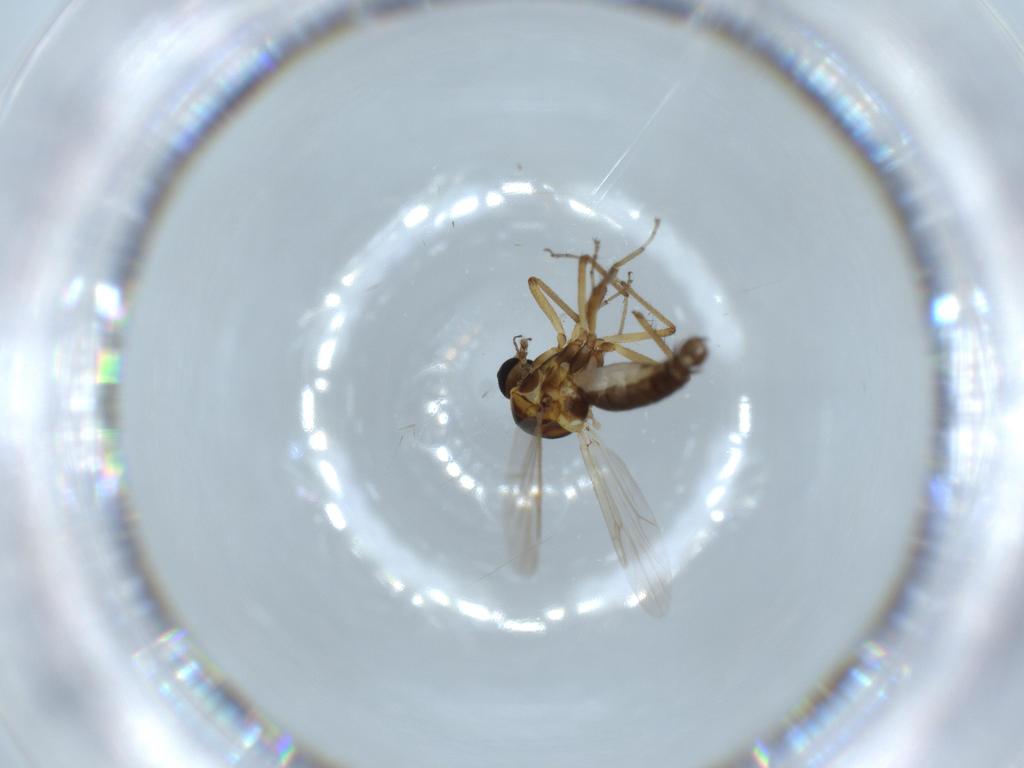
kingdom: Animalia
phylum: Arthropoda
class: Insecta
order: Diptera
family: Ceratopogonidae
